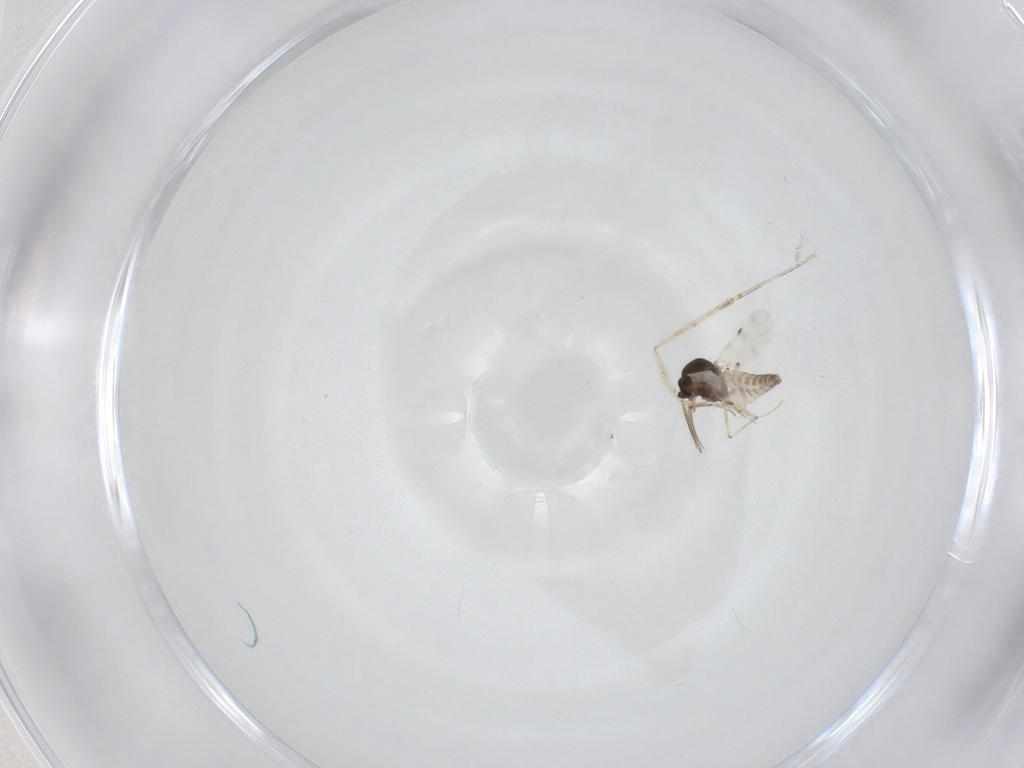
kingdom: Animalia
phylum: Arthropoda
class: Insecta
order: Diptera
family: Cecidomyiidae
